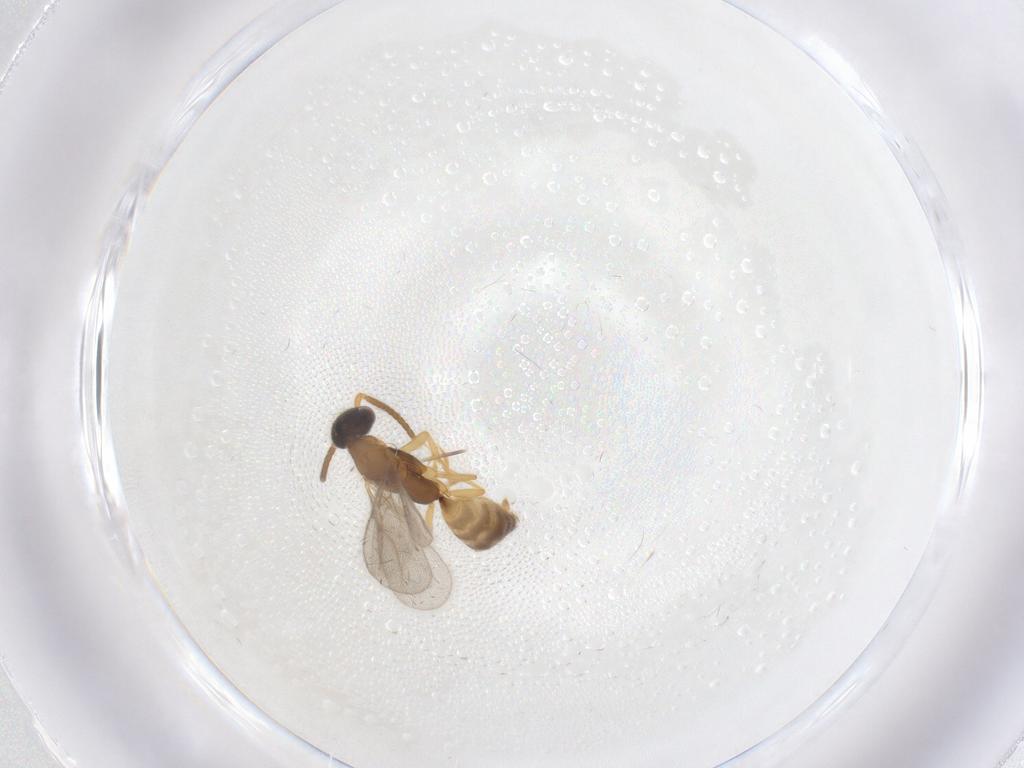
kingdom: Animalia
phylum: Arthropoda
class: Insecta
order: Hymenoptera
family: Bethylidae
